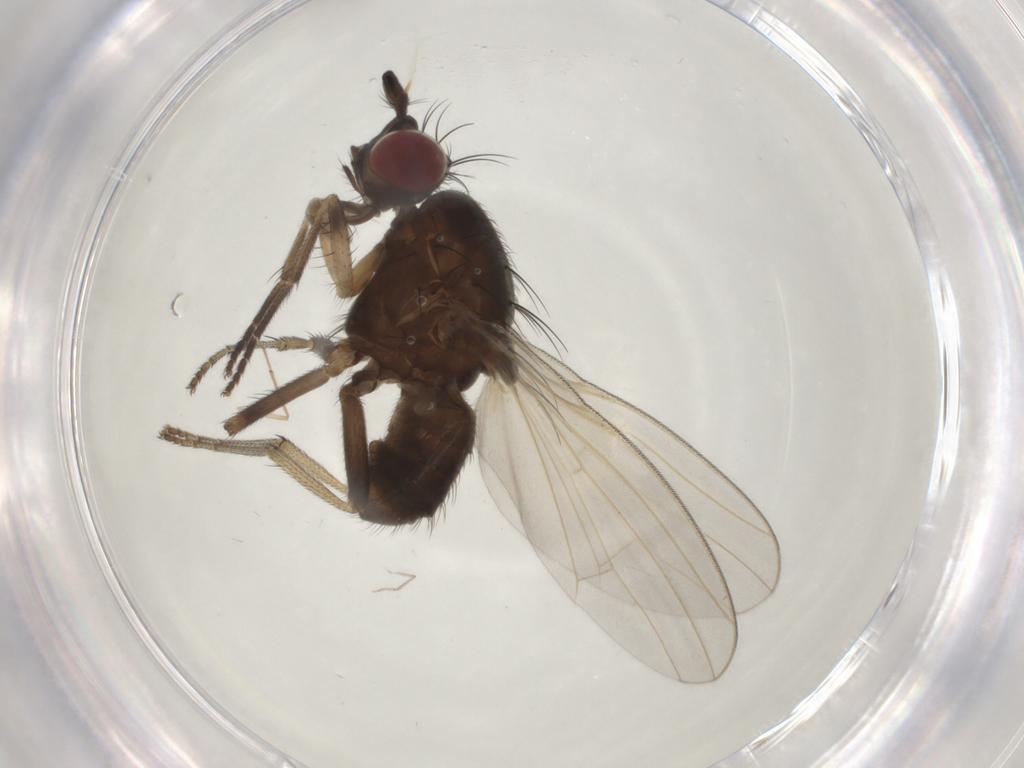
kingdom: Animalia
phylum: Arthropoda
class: Insecta
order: Diptera
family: Cecidomyiidae
